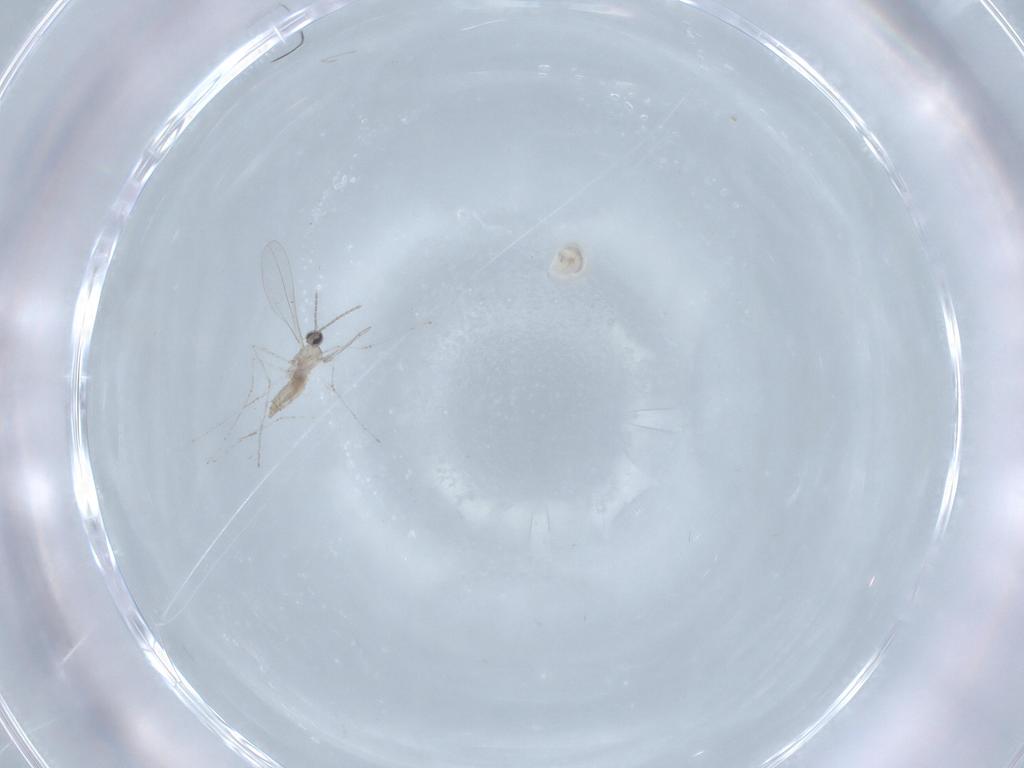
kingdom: Animalia
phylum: Arthropoda
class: Insecta
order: Diptera
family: Cecidomyiidae
